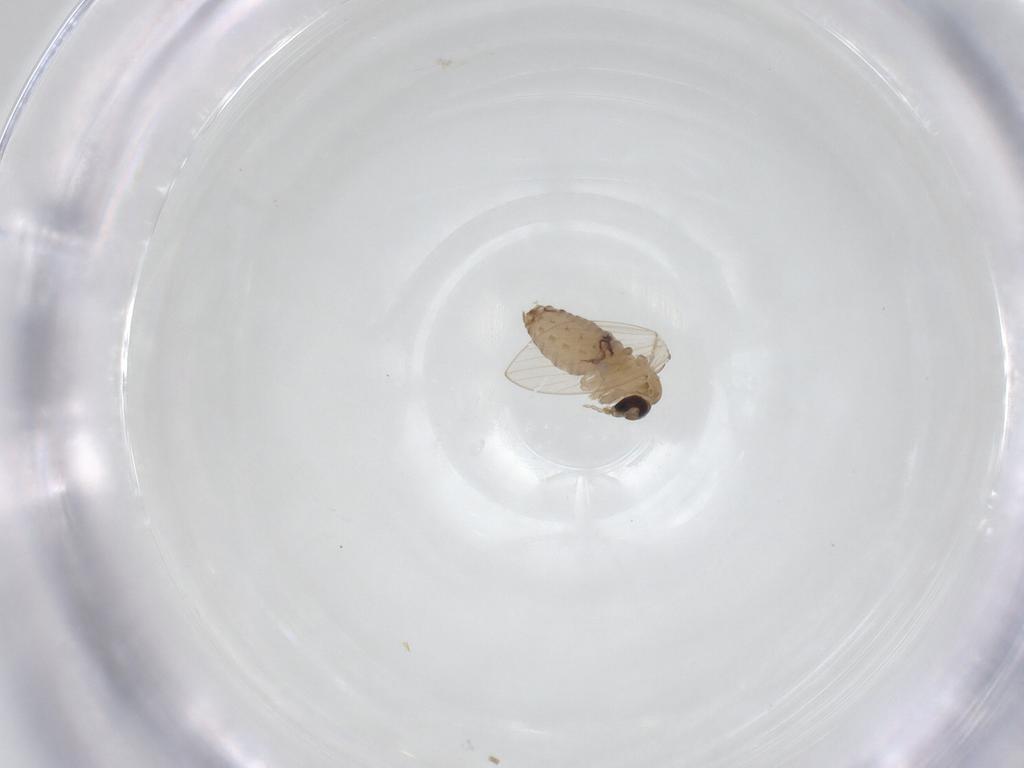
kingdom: Animalia
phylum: Arthropoda
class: Insecta
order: Diptera
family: Psychodidae
